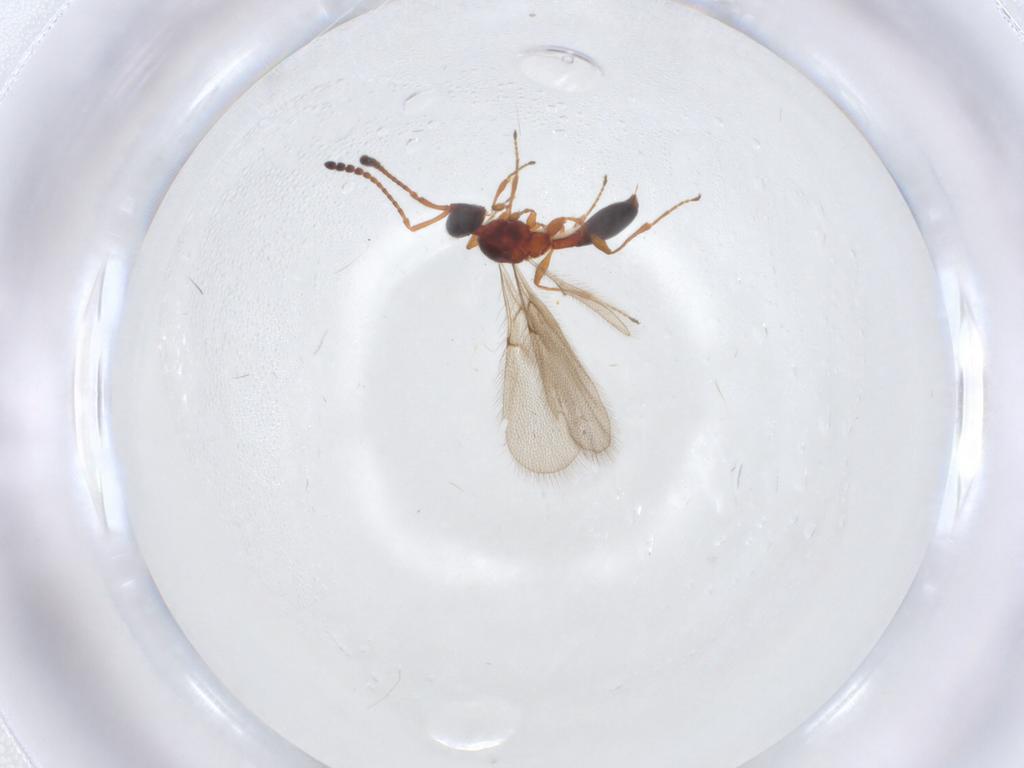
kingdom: Animalia
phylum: Arthropoda
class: Insecta
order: Hymenoptera
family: Diapriidae
